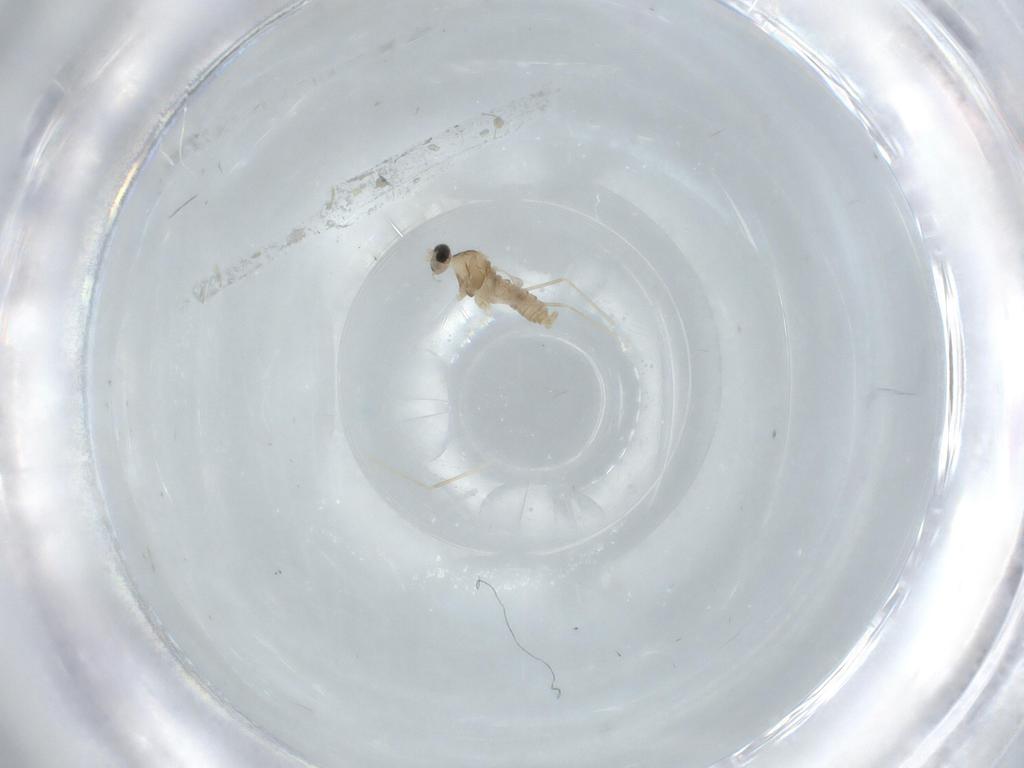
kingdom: Animalia
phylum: Arthropoda
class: Insecta
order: Diptera
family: Cecidomyiidae
